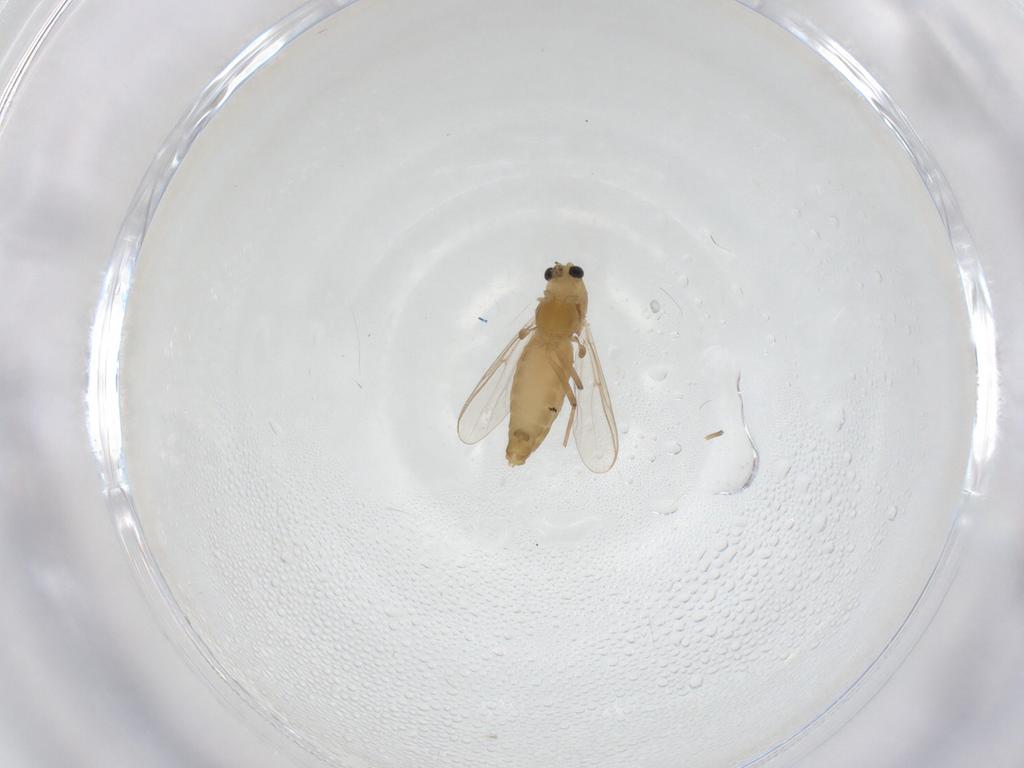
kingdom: Animalia
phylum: Arthropoda
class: Insecta
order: Diptera
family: Chironomidae
